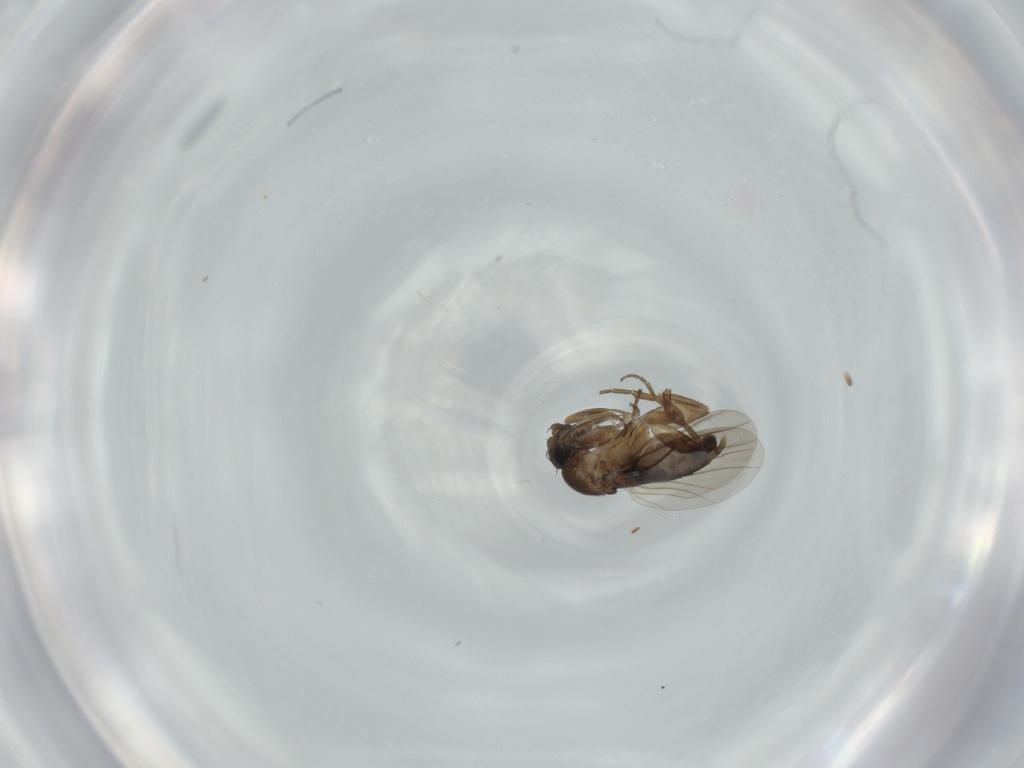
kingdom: Animalia
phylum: Arthropoda
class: Insecta
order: Diptera
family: Phoridae
